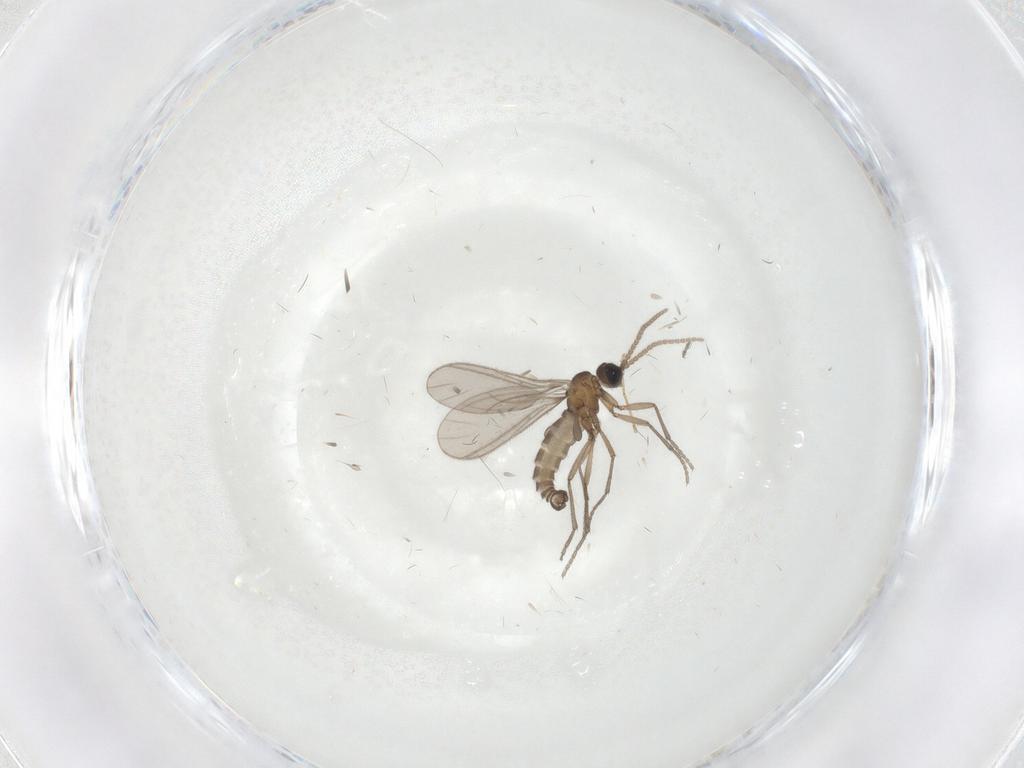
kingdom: Animalia
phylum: Arthropoda
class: Insecta
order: Diptera
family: Sciaridae
